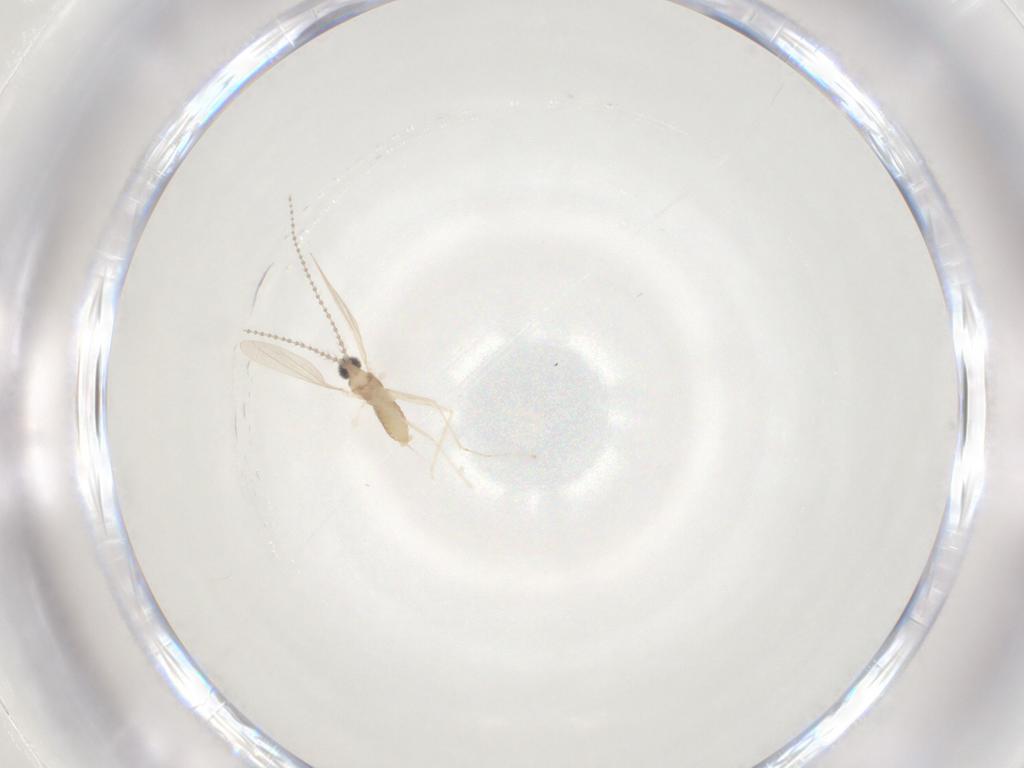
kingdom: Animalia
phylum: Arthropoda
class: Insecta
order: Diptera
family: Cecidomyiidae
